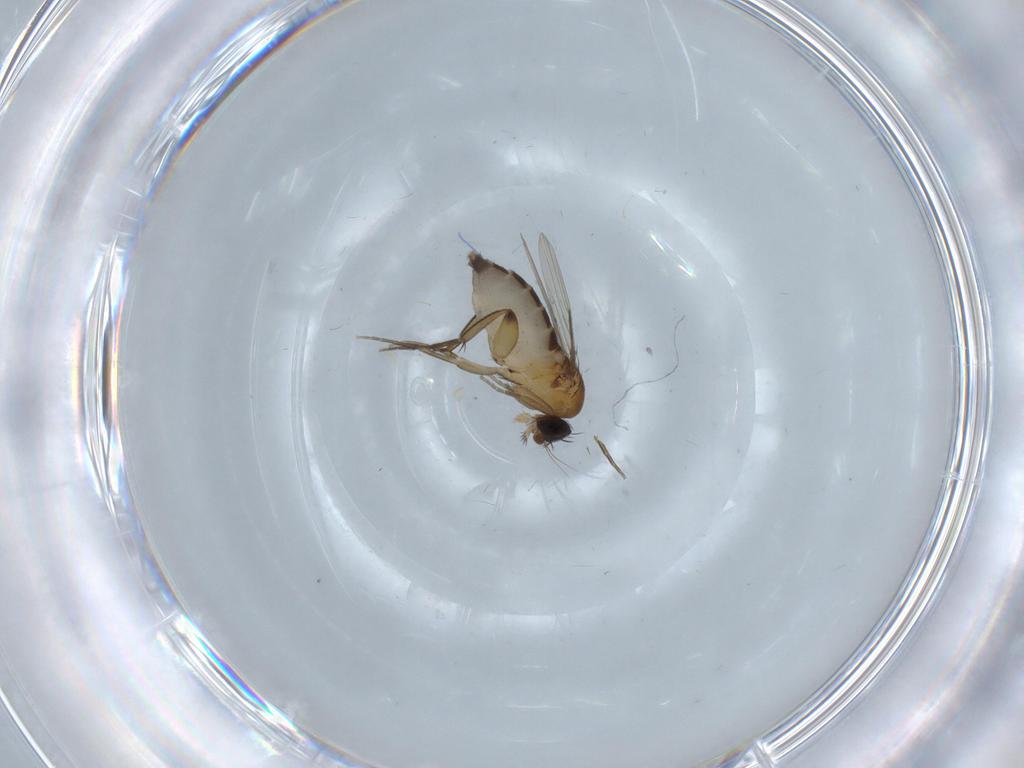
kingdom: Animalia
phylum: Arthropoda
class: Insecta
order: Diptera
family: Phoridae
